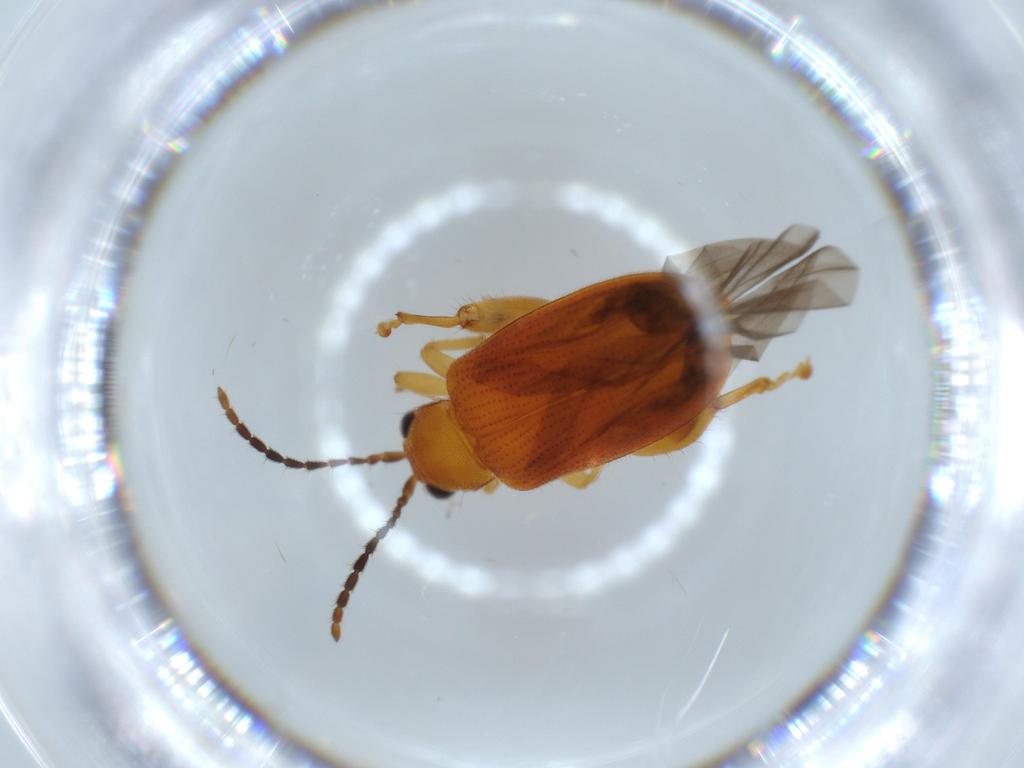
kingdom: Animalia
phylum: Arthropoda
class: Insecta
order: Coleoptera
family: Chrysomelidae
